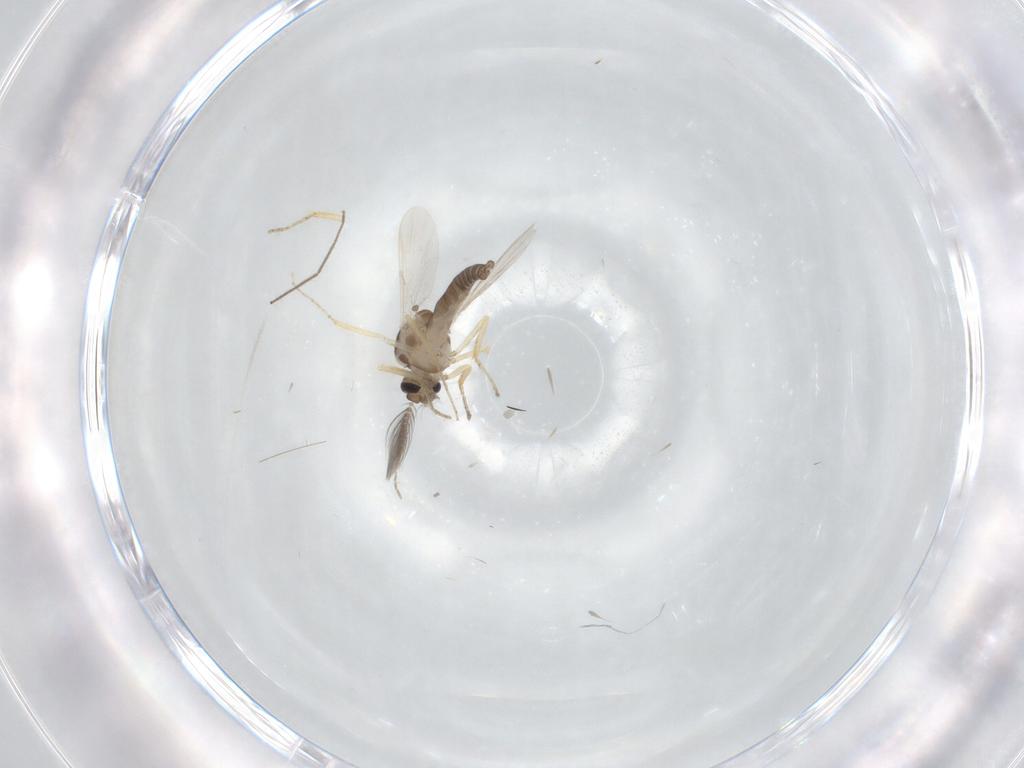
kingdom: Animalia
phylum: Arthropoda
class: Insecta
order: Diptera
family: Ceratopogonidae
